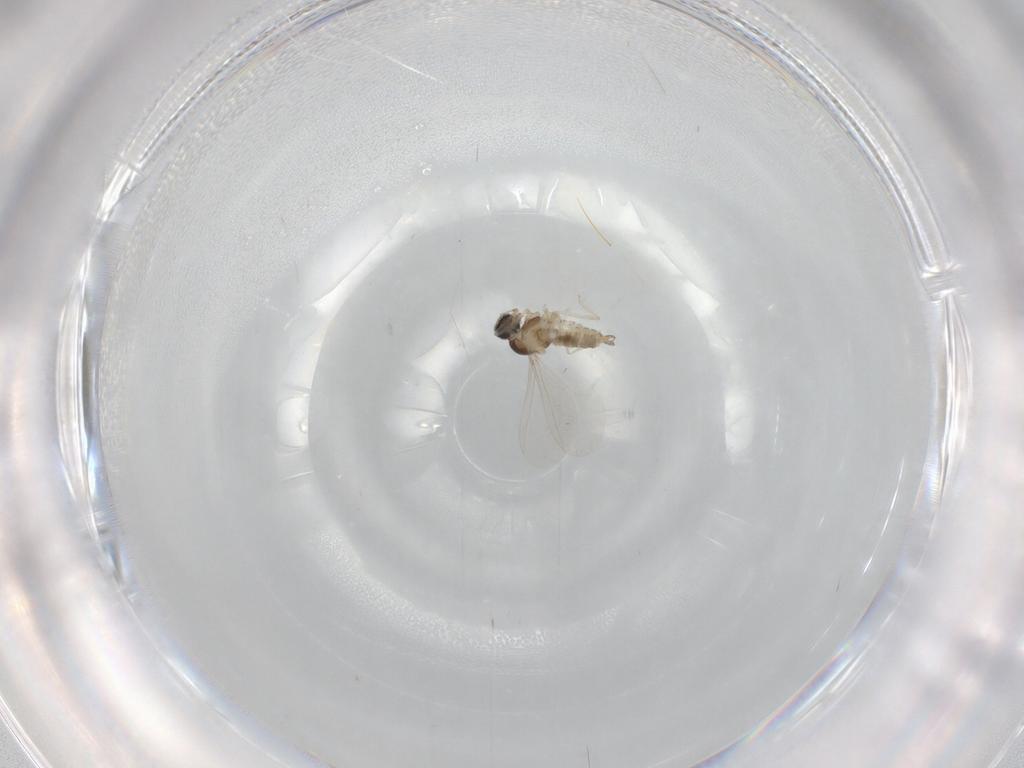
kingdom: Animalia
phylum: Arthropoda
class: Insecta
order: Diptera
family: Cecidomyiidae
